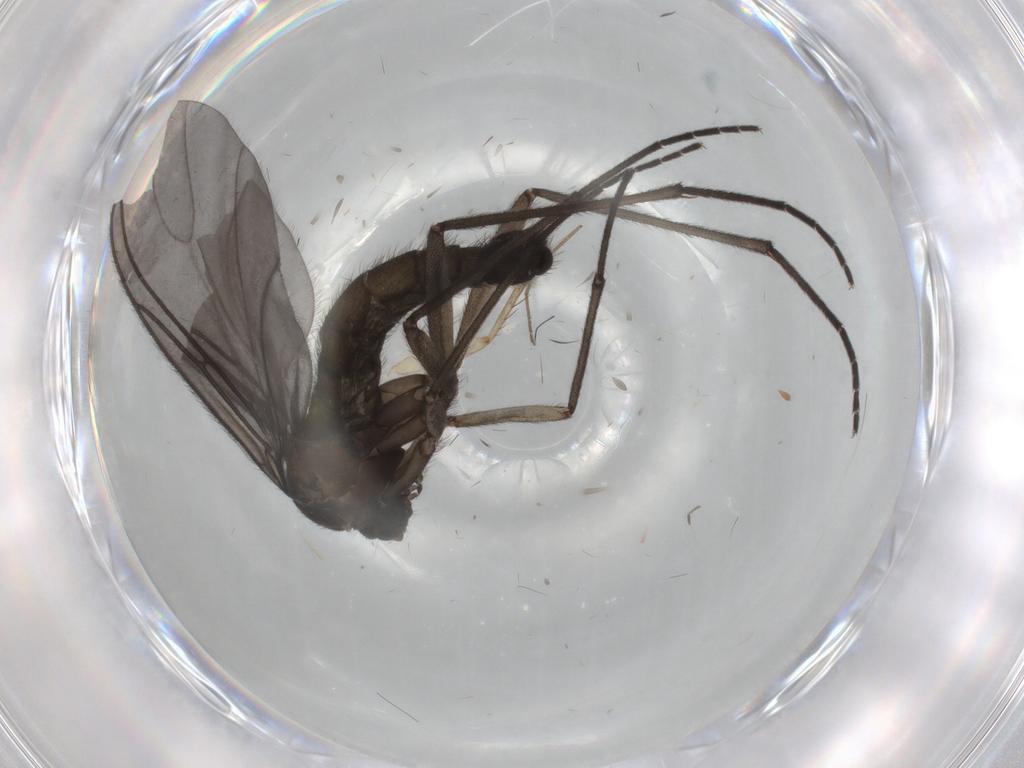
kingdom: Animalia
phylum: Arthropoda
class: Insecta
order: Diptera
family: Sciaridae
